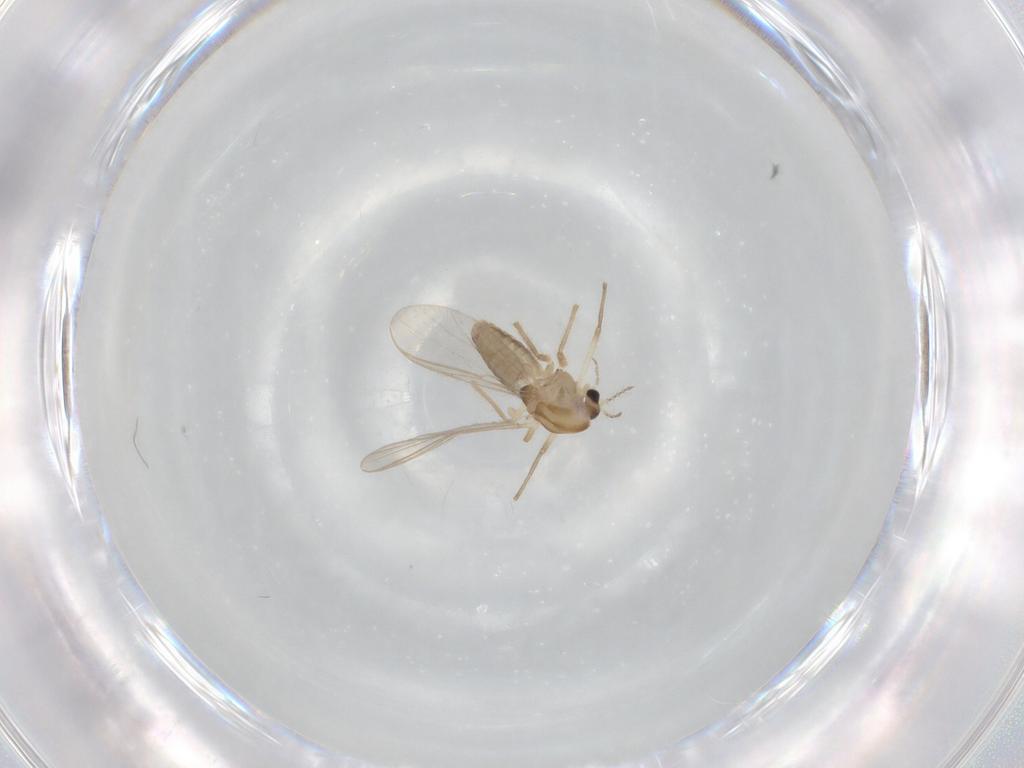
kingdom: Animalia
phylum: Arthropoda
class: Insecta
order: Diptera
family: Chironomidae
